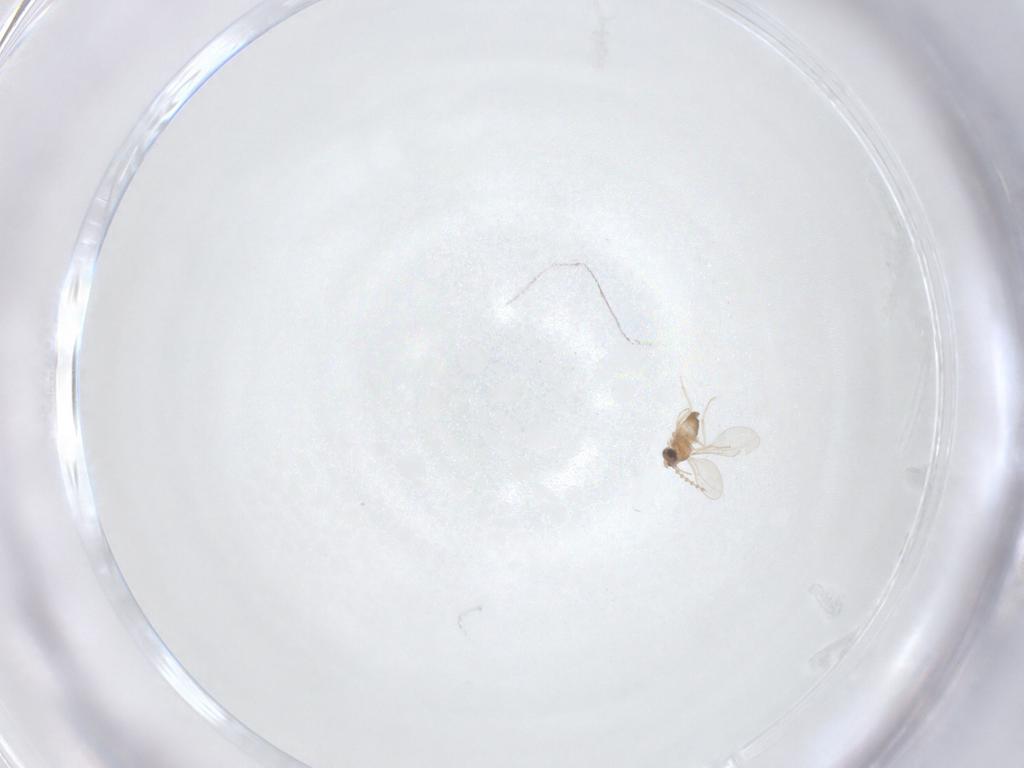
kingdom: Animalia
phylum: Arthropoda
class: Insecta
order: Diptera
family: Cecidomyiidae
